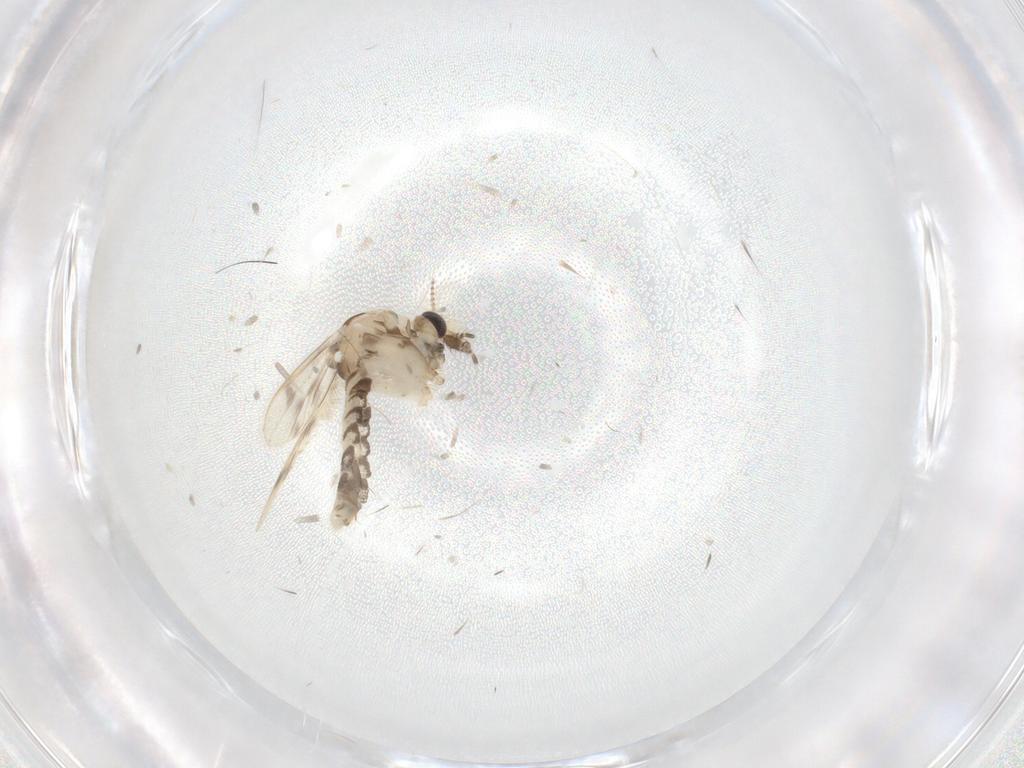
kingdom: Animalia
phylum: Arthropoda
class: Insecta
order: Diptera
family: Corethrellidae
